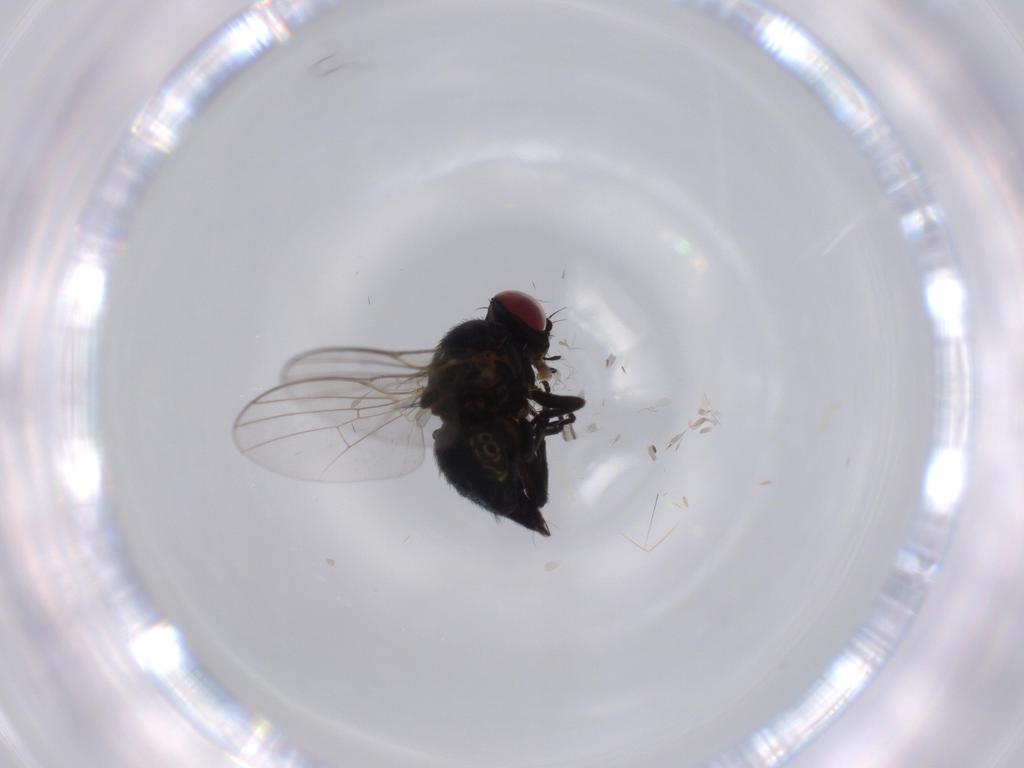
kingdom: Animalia
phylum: Arthropoda
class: Insecta
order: Diptera
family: Agromyzidae
